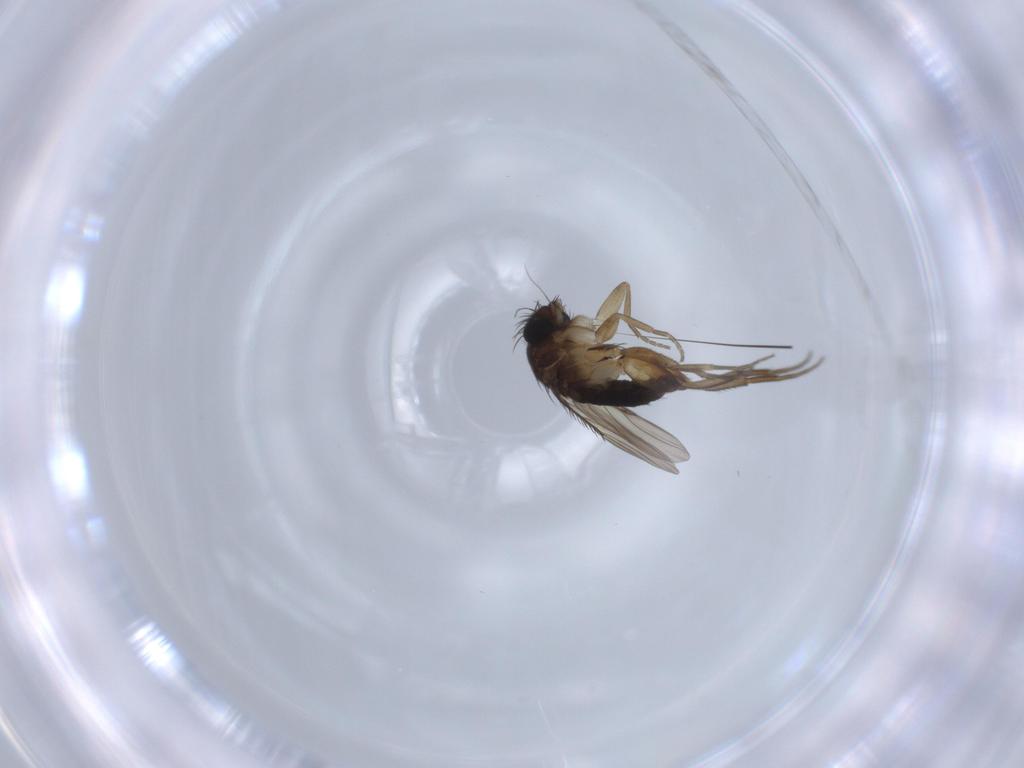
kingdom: Animalia
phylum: Arthropoda
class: Insecta
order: Diptera
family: Phoridae
